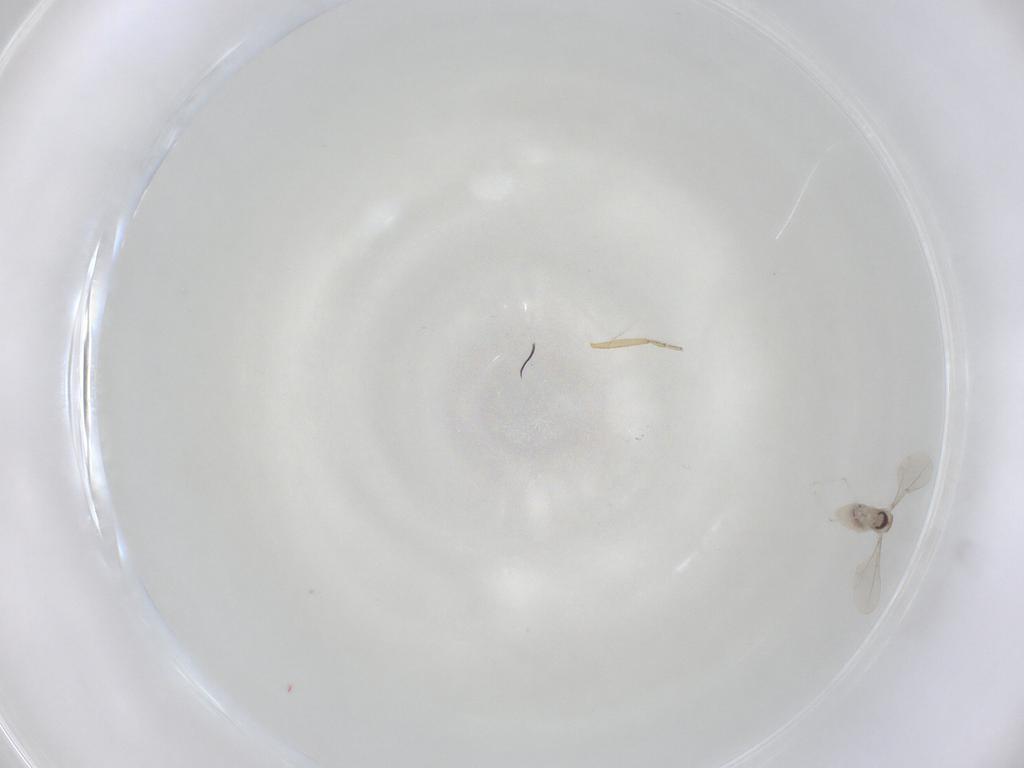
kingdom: Animalia
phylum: Arthropoda
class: Insecta
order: Diptera
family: Cecidomyiidae
